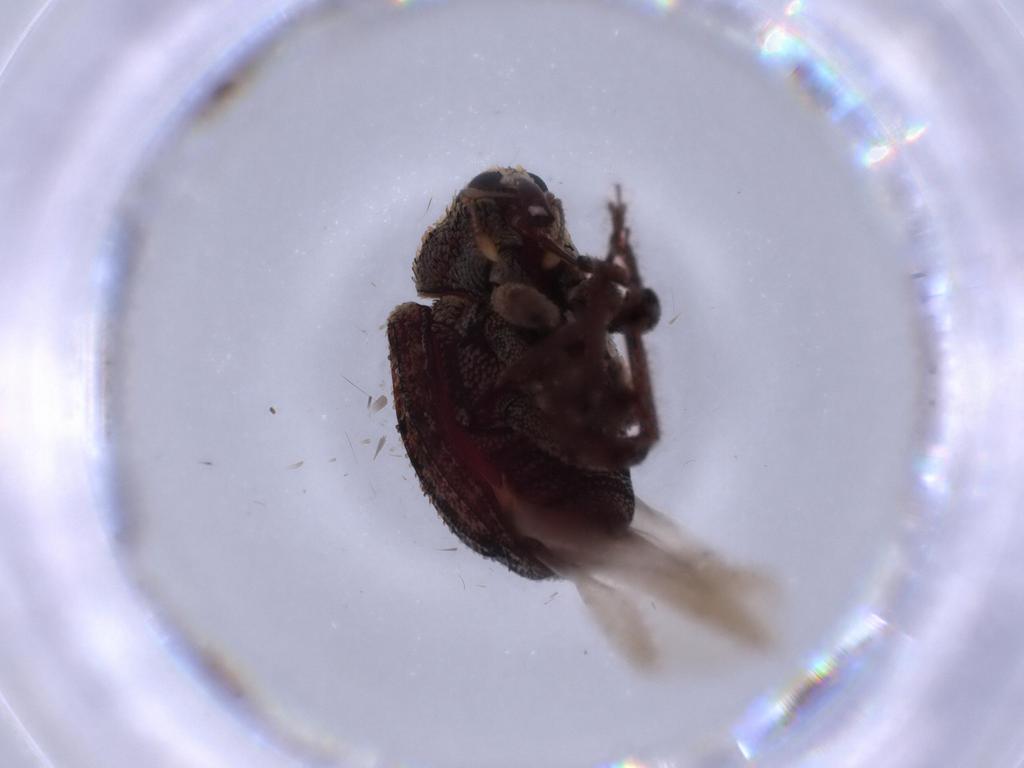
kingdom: Animalia
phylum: Arthropoda
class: Insecta
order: Coleoptera
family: Curculionidae
